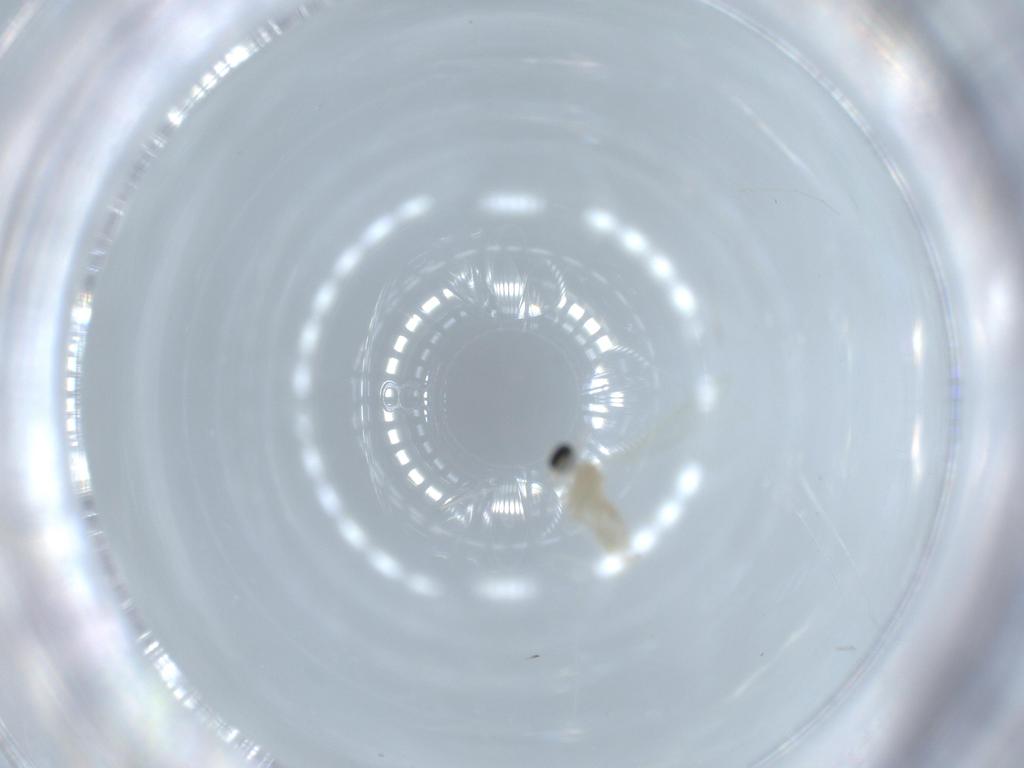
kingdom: Animalia
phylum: Arthropoda
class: Insecta
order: Diptera
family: Cecidomyiidae
